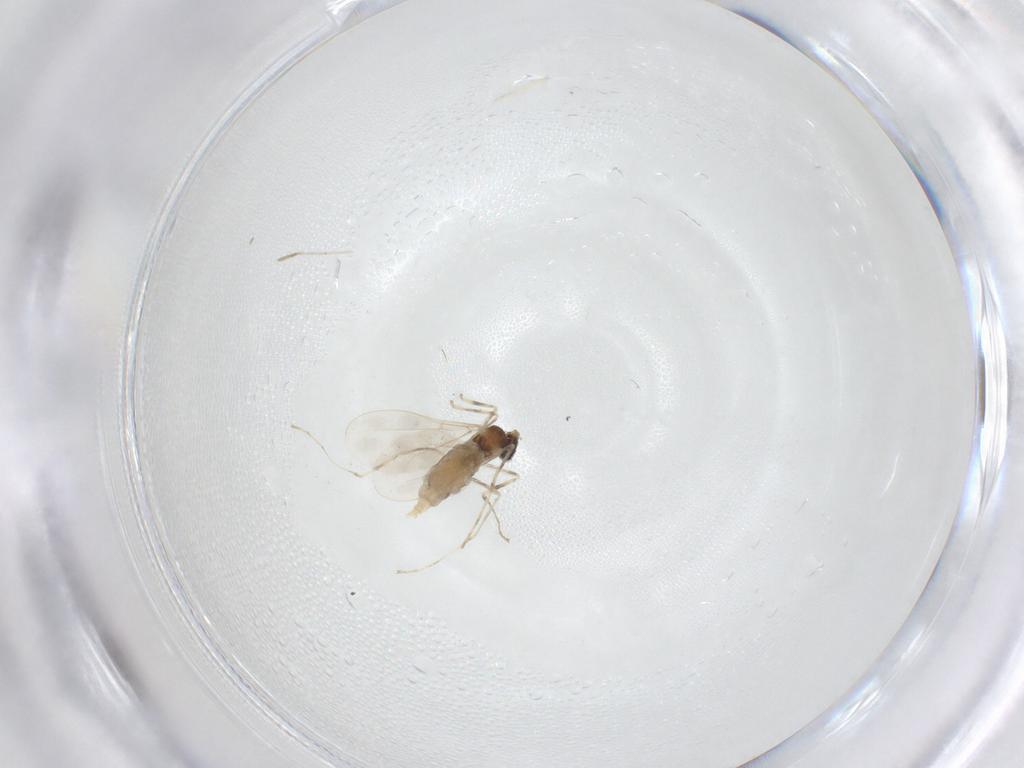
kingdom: Animalia
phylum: Arthropoda
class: Insecta
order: Diptera
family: Cecidomyiidae
